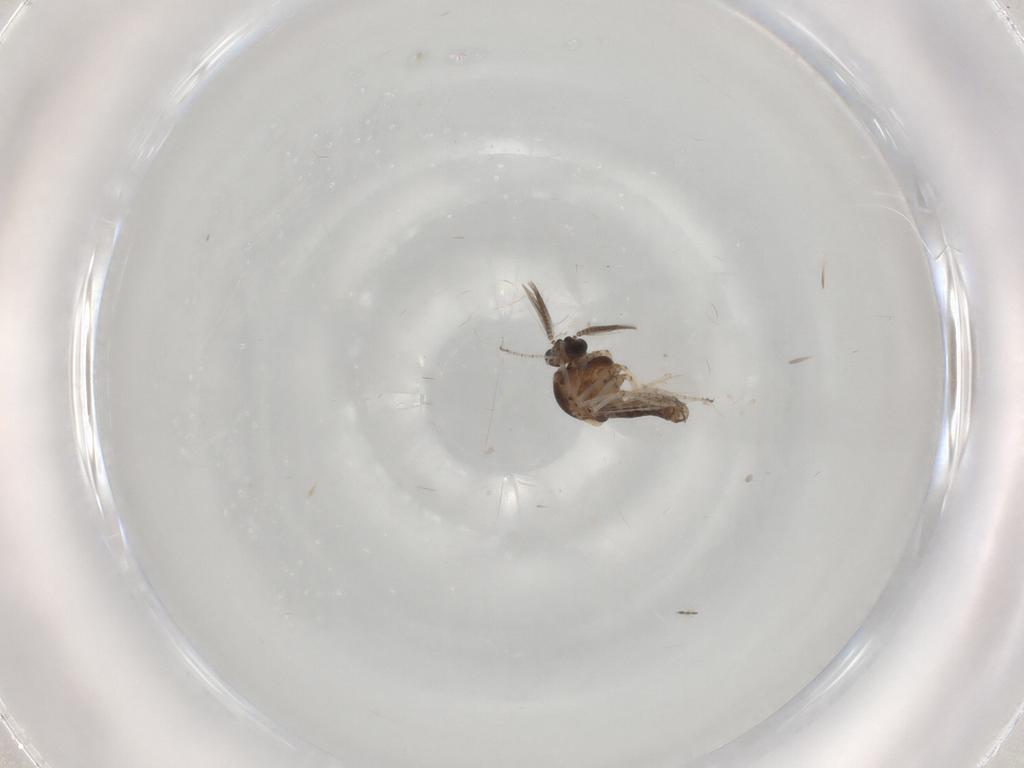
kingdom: Animalia
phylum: Arthropoda
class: Insecta
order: Diptera
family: Ceratopogonidae
